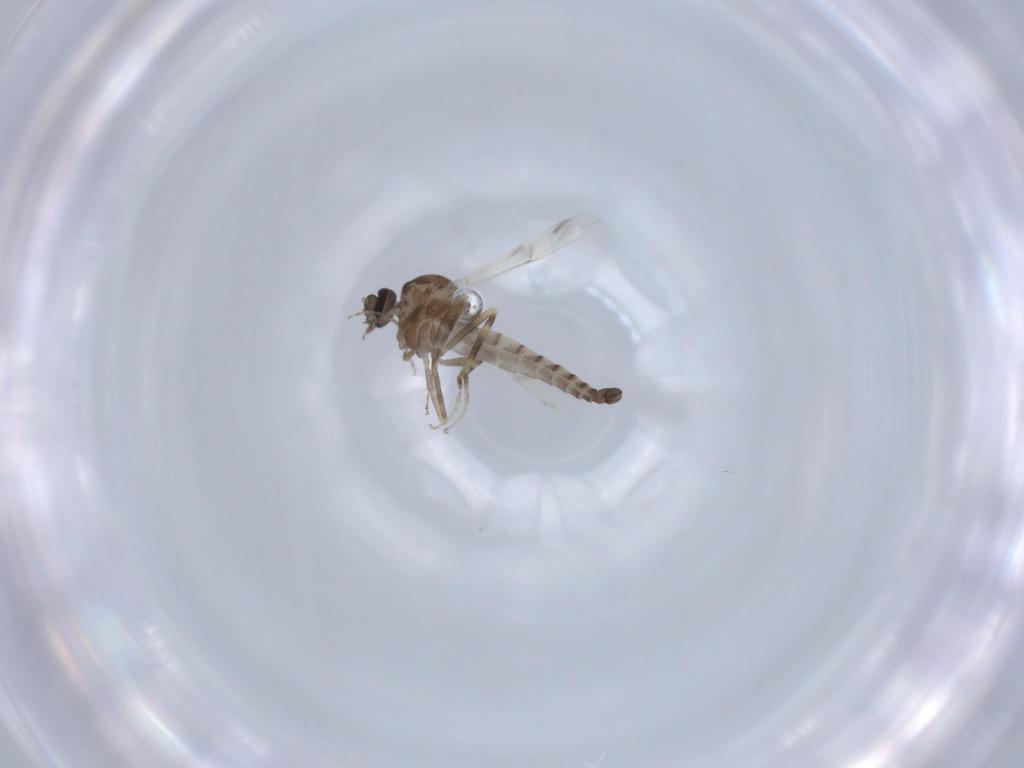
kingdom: Animalia
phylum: Arthropoda
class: Insecta
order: Diptera
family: Ceratopogonidae
